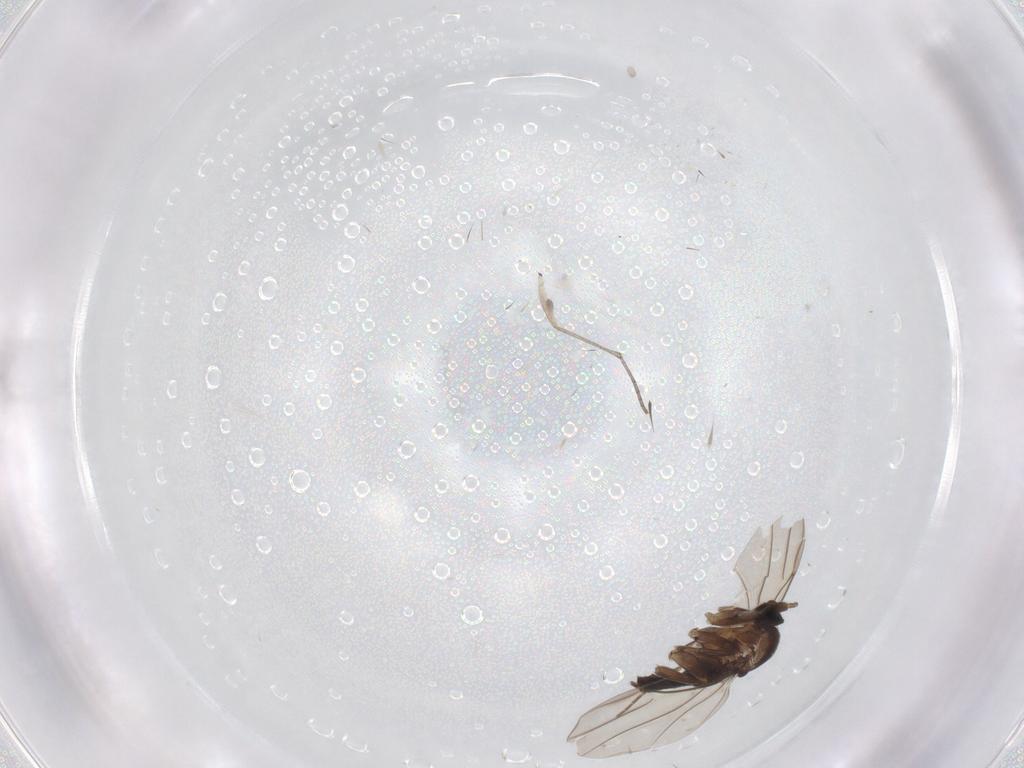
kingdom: Animalia
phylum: Arthropoda
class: Insecta
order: Diptera
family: Phoridae
